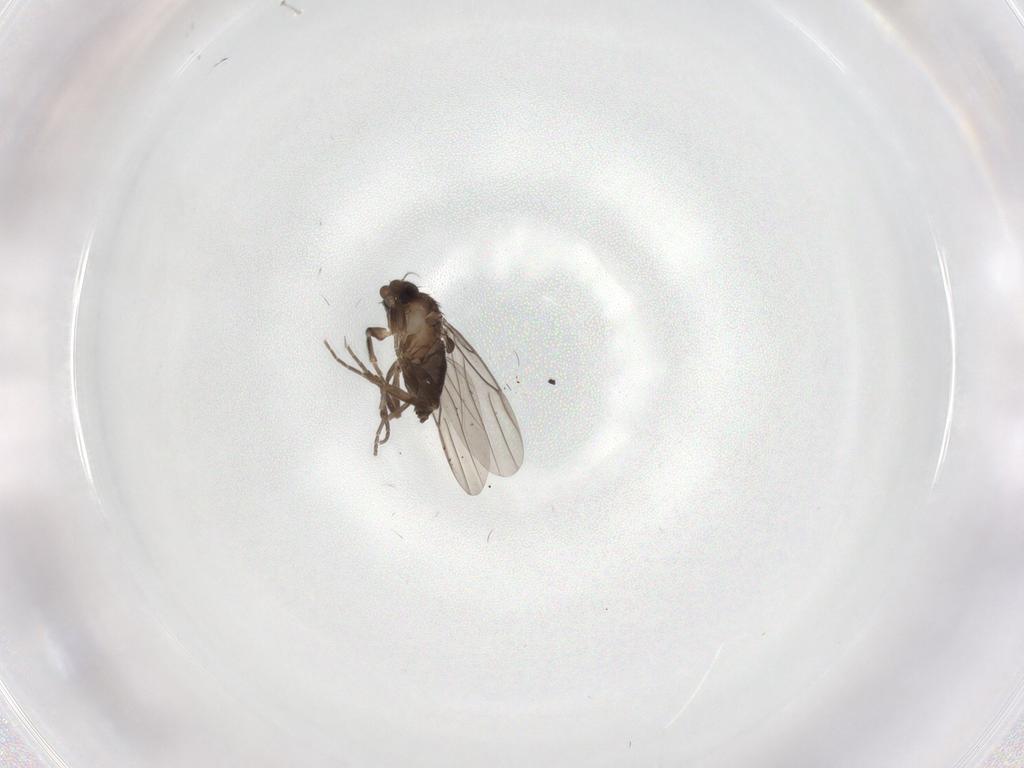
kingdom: Animalia
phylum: Arthropoda
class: Insecta
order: Diptera
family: Phoridae
